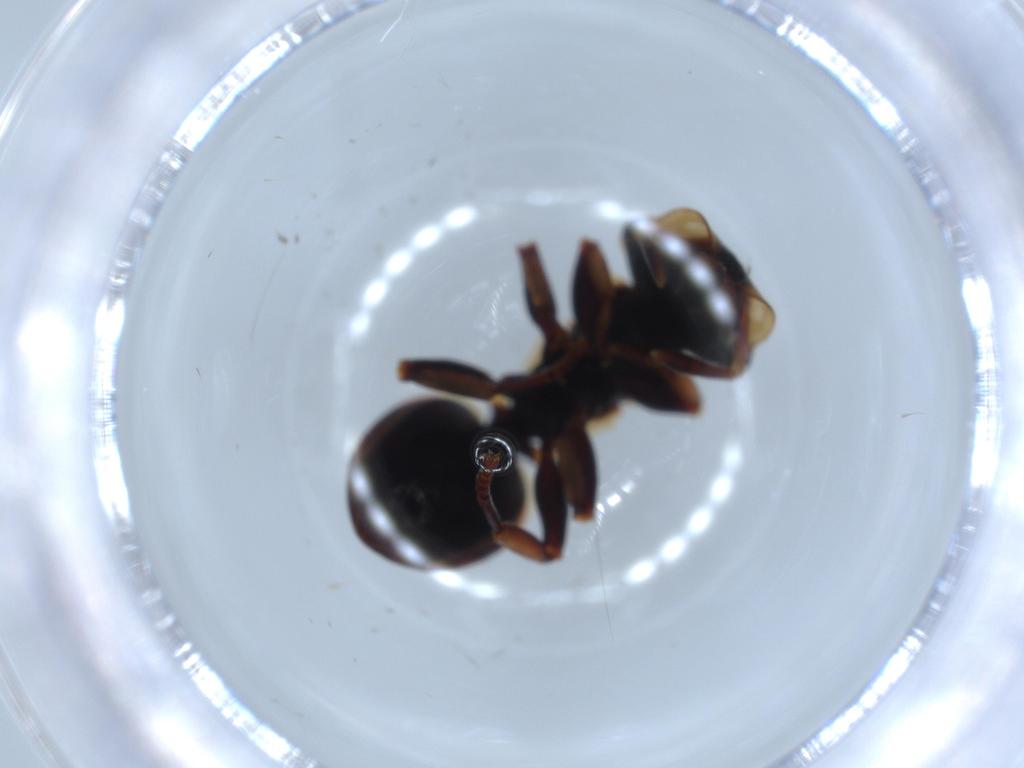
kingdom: Animalia
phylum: Arthropoda
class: Insecta
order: Hymenoptera
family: Formicidae
